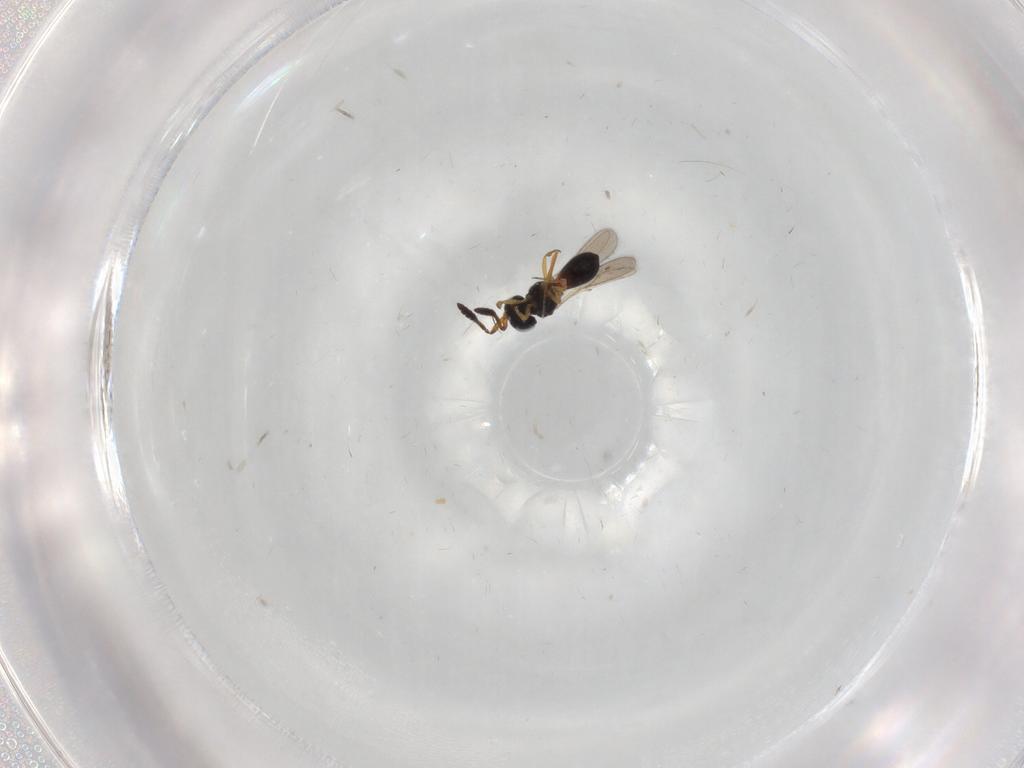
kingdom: Animalia
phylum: Arthropoda
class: Insecta
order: Hymenoptera
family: Scelionidae
